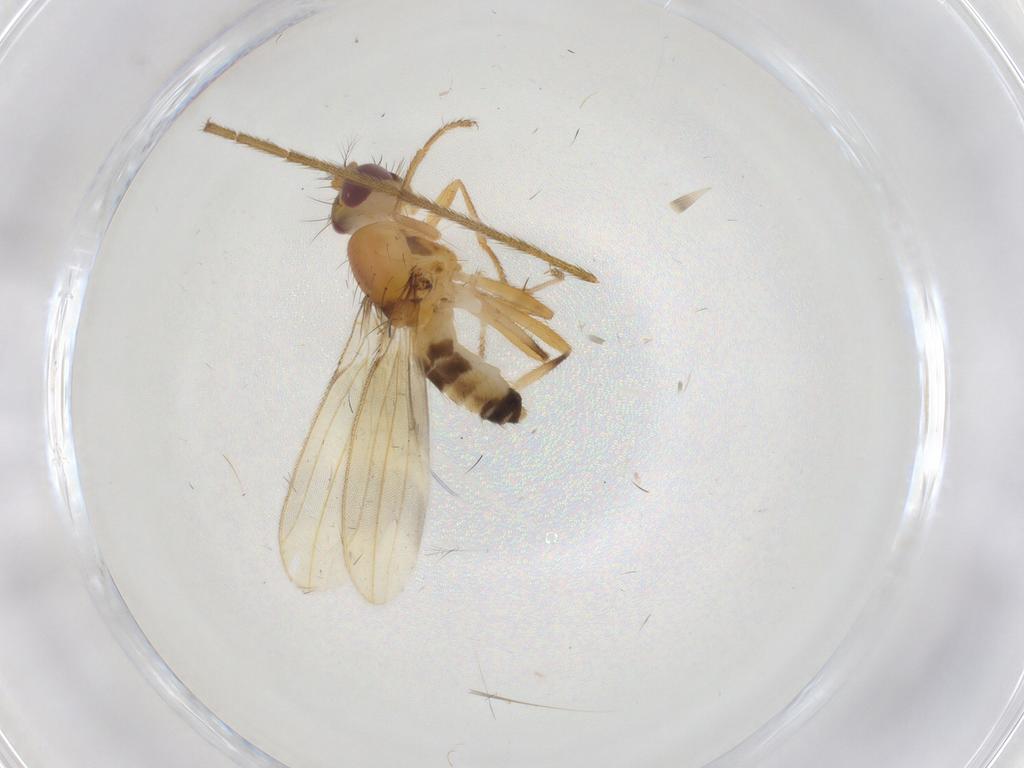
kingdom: Animalia
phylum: Arthropoda
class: Insecta
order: Diptera
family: Periscelididae
